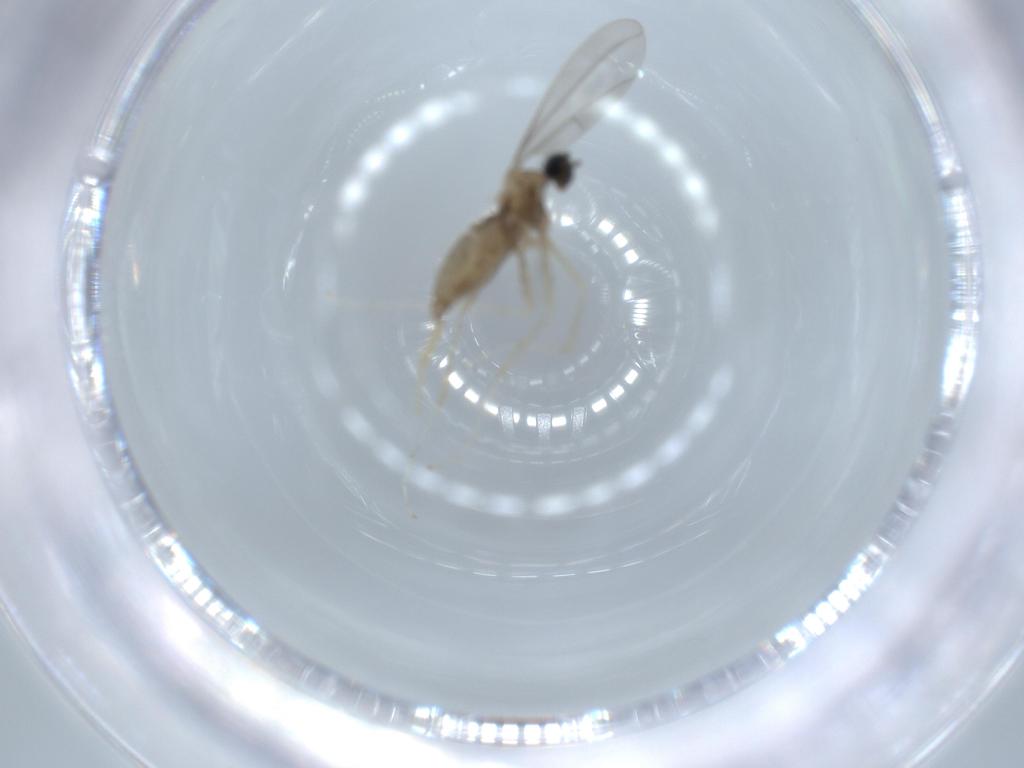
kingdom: Animalia
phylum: Arthropoda
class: Insecta
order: Diptera
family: Cecidomyiidae
